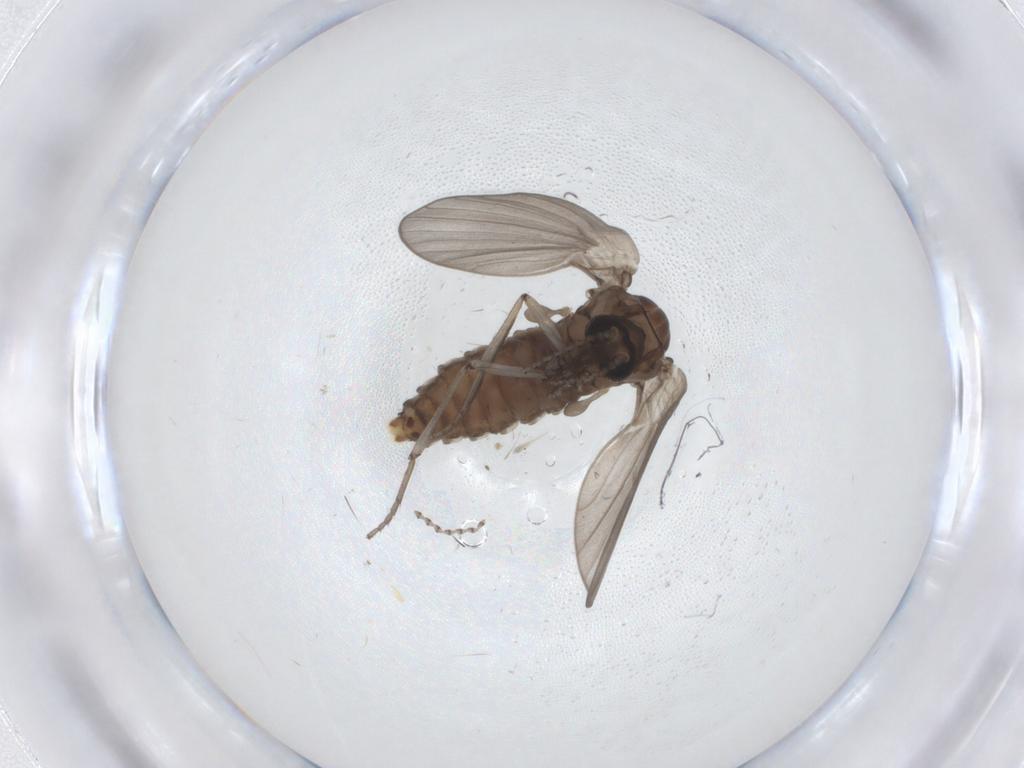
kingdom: Animalia
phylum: Arthropoda
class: Insecta
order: Diptera
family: Psychodidae
